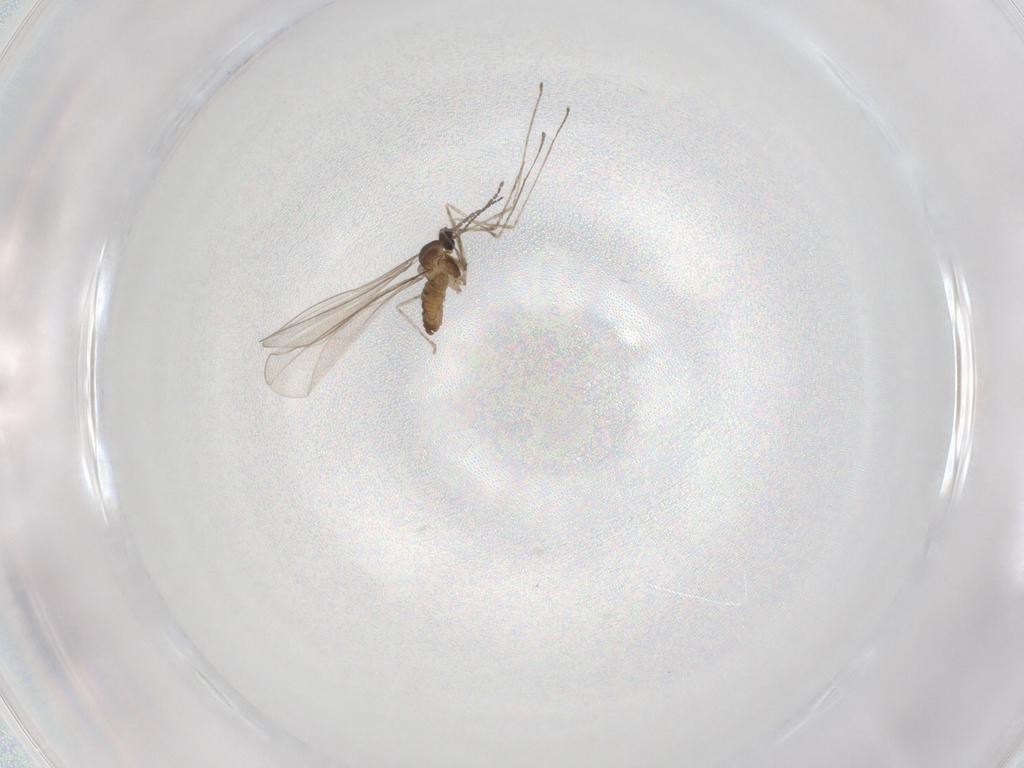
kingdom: Animalia
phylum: Arthropoda
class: Insecta
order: Diptera
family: Cecidomyiidae
